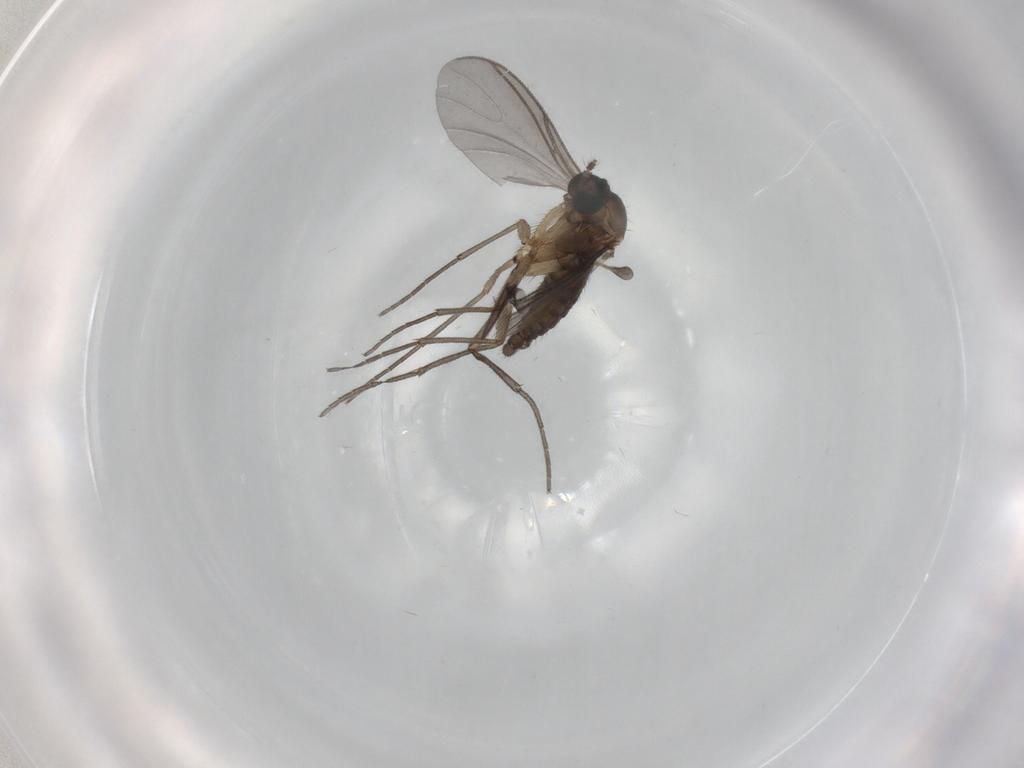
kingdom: Animalia
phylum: Arthropoda
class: Insecta
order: Diptera
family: Sciaridae
